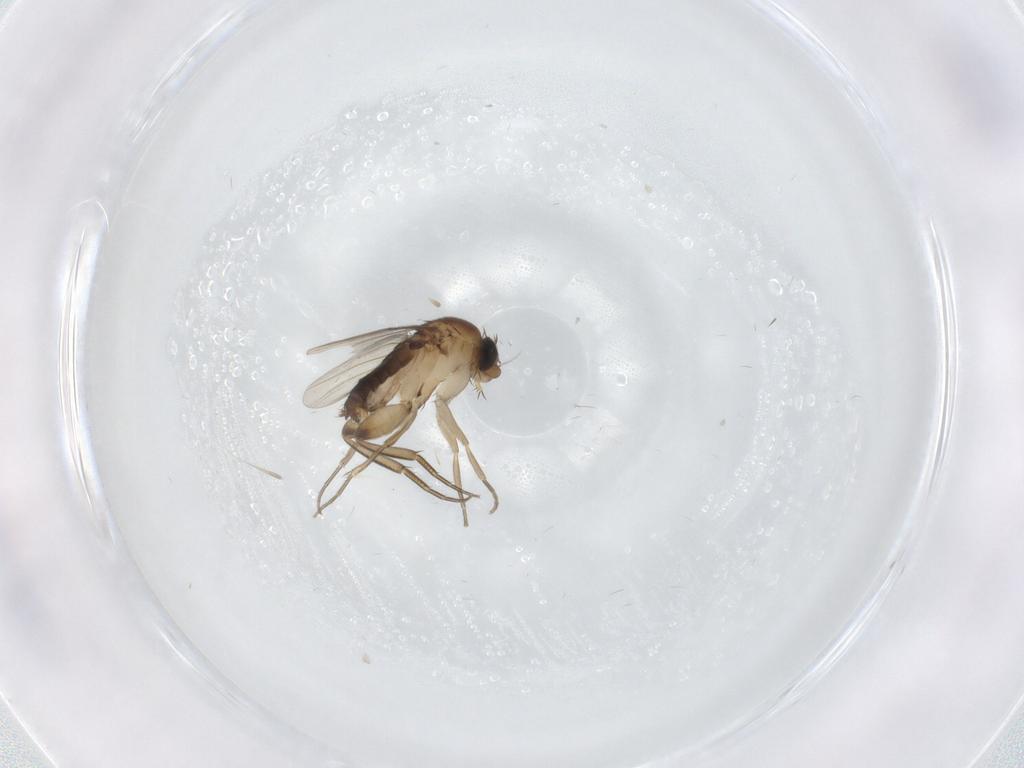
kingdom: Animalia
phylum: Arthropoda
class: Insecta
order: Diptera
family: Phoridae
